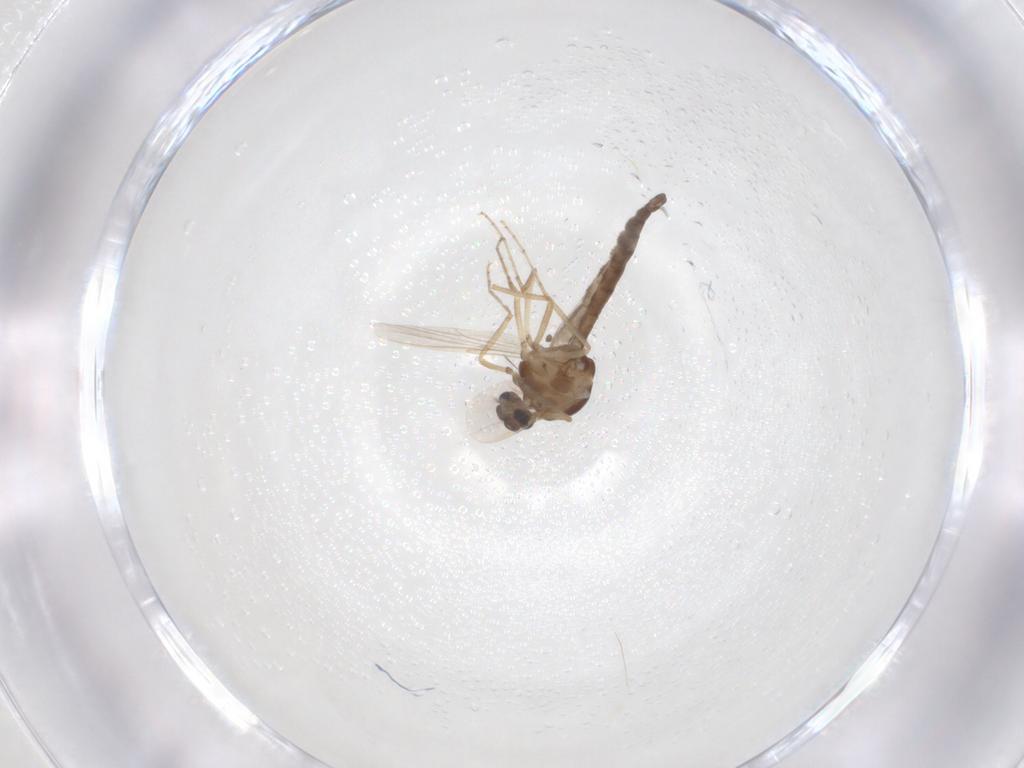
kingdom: Animalia
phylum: Arthropoda
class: Insecta
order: Diptera
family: Ceratopogonidae
